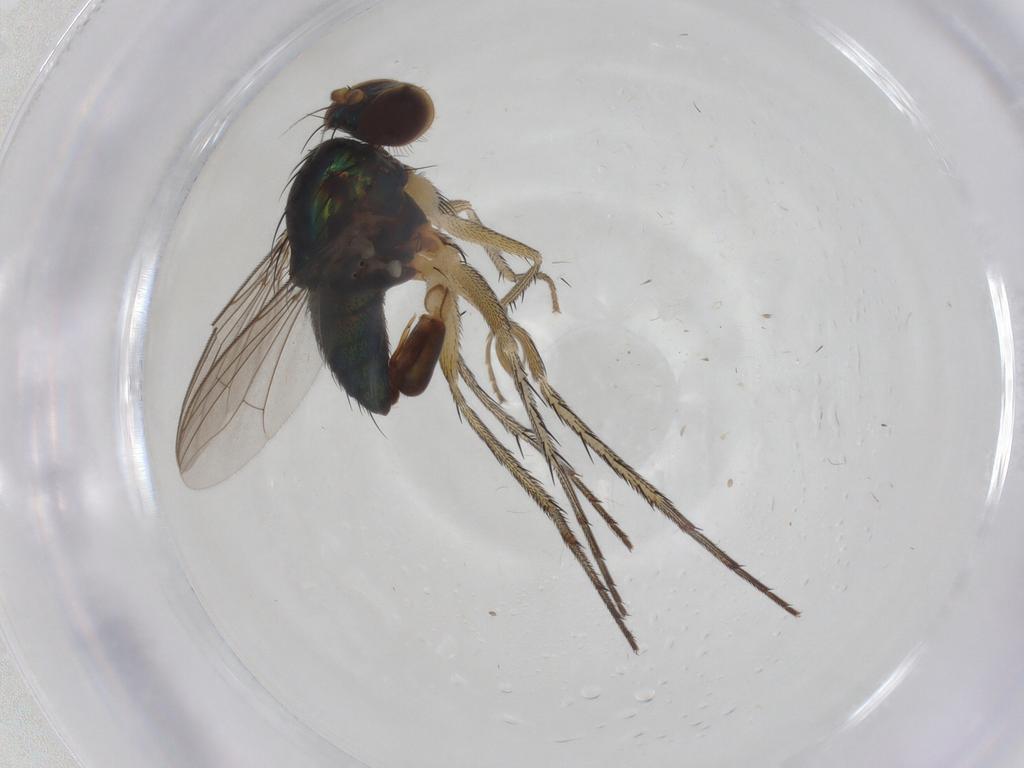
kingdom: Animalia
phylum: Arthropoda
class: Insecta
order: Diptera
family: Dolichopodidae
